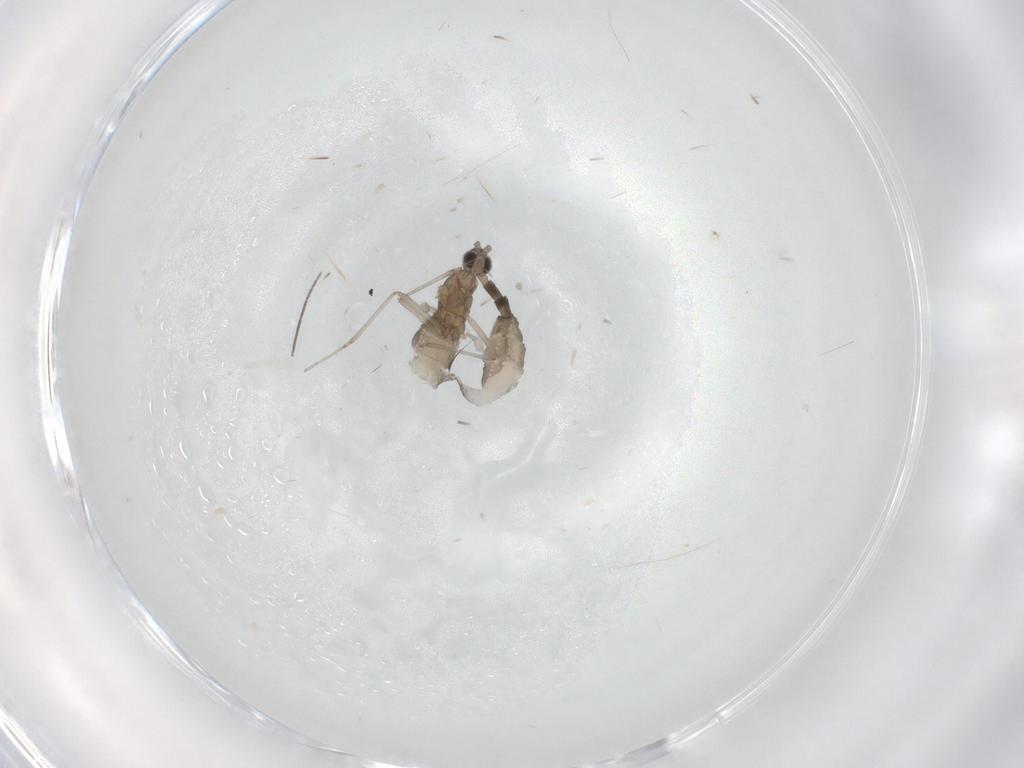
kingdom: Animalia
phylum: Arthropoda
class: Insecta
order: Diptera
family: Cecidomyiidae
